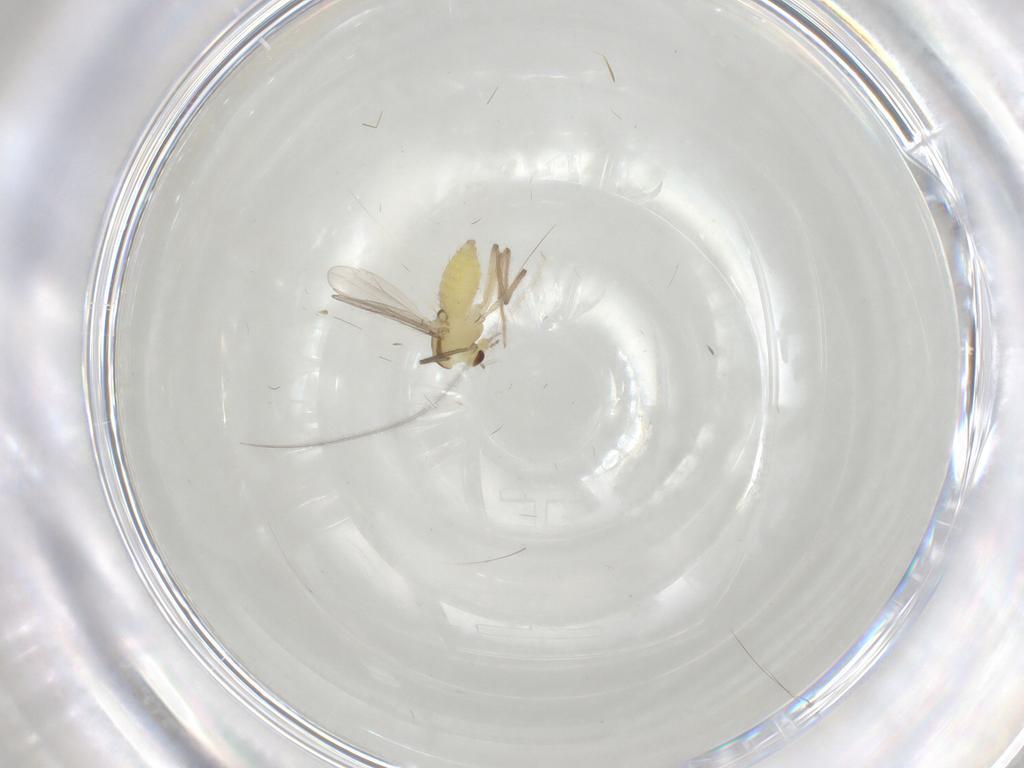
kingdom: Animalia
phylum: Arthropoda
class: Insecta
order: Diptera
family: Chironomidae
